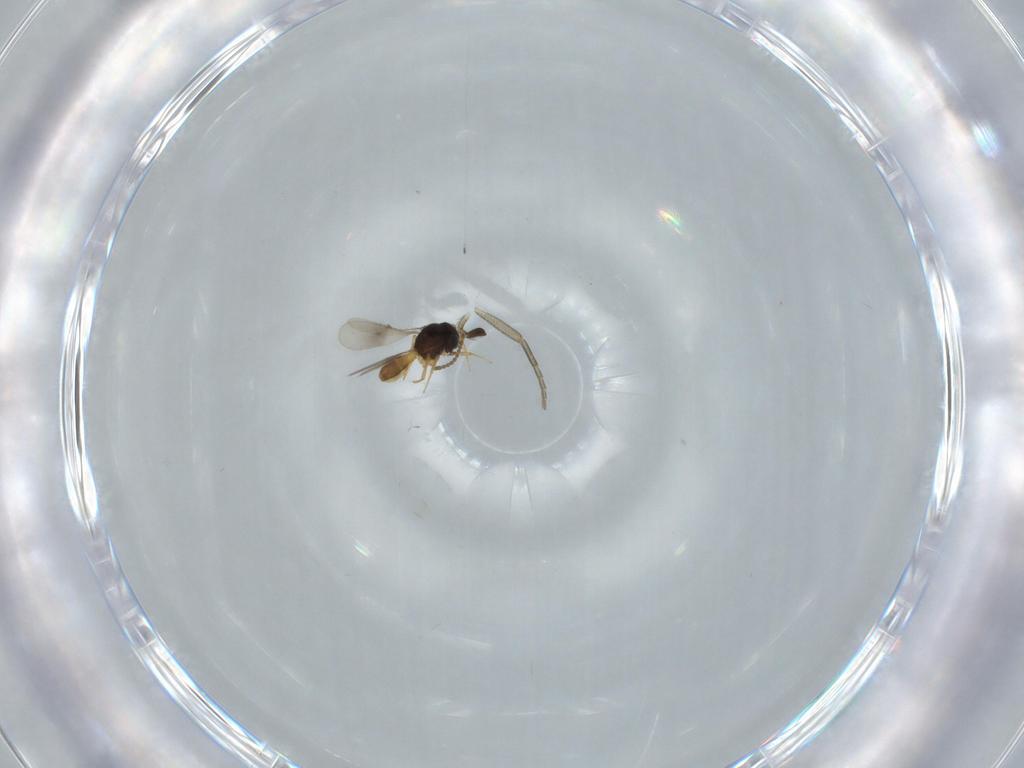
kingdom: Animalia
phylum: Arthropoda
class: Insecta
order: Hymenoptera
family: Scelionidae
